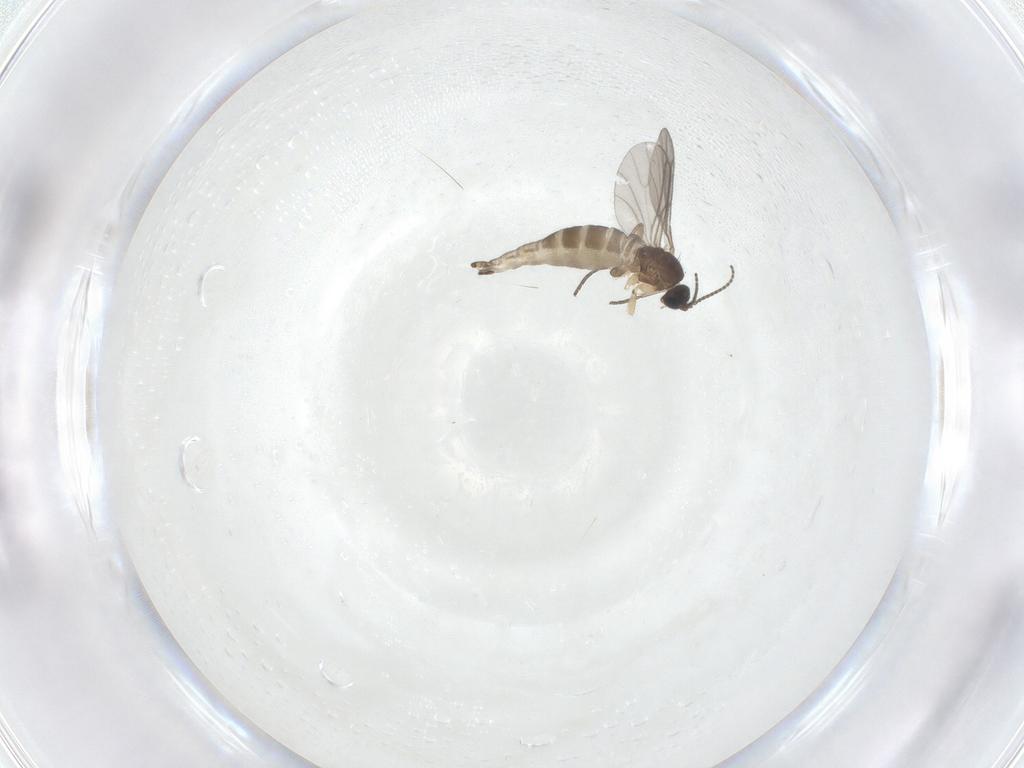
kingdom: Animalia
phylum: Arthropoda
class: Insecta
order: Diptera
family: Sciaridae
